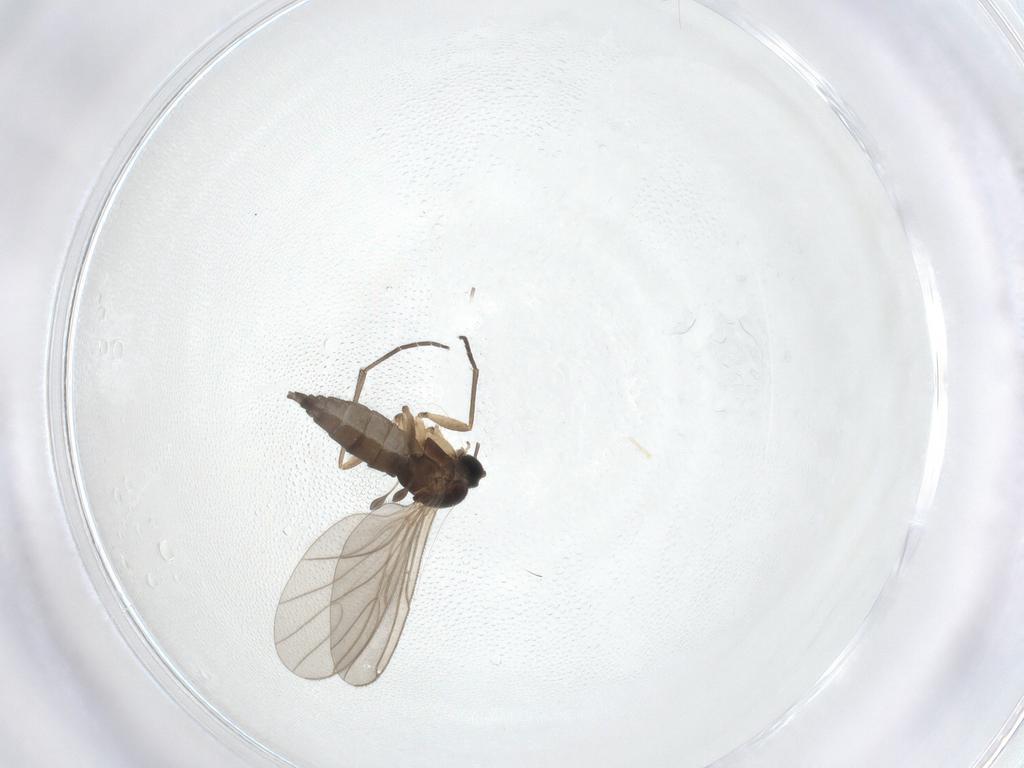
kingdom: Animalia
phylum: Arthropoda
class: Insecta
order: Diptera
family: Sciaridae
